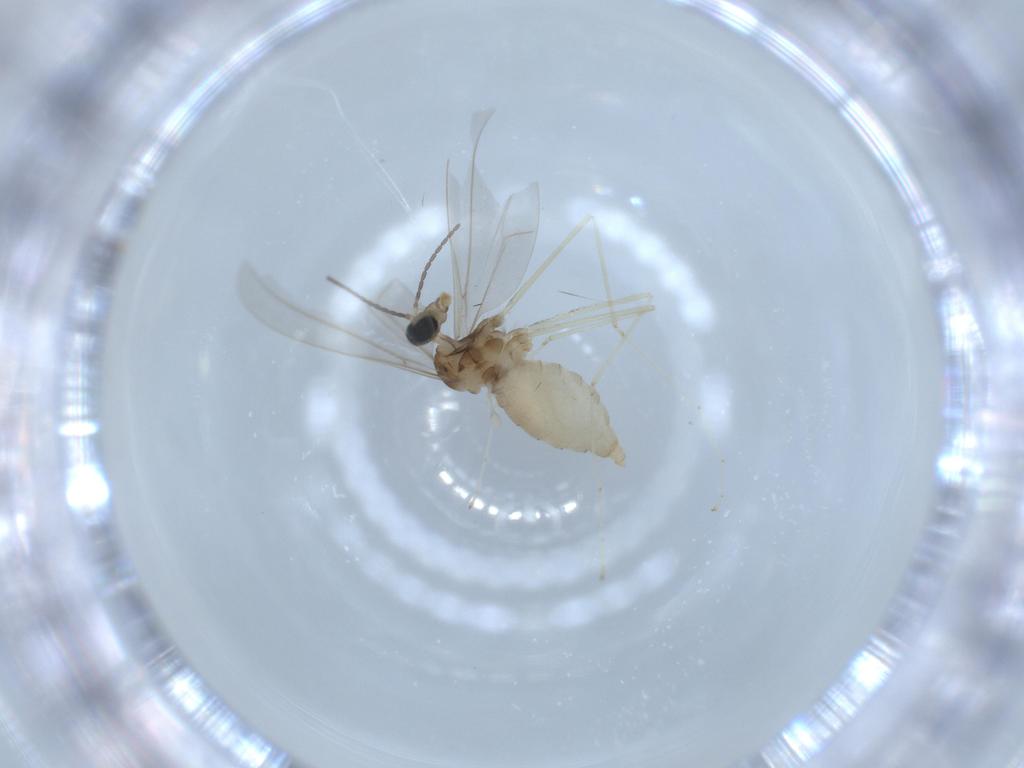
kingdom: Animalia
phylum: Arthropoda
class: Insecta
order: Diptera
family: Cecidomyiidae
